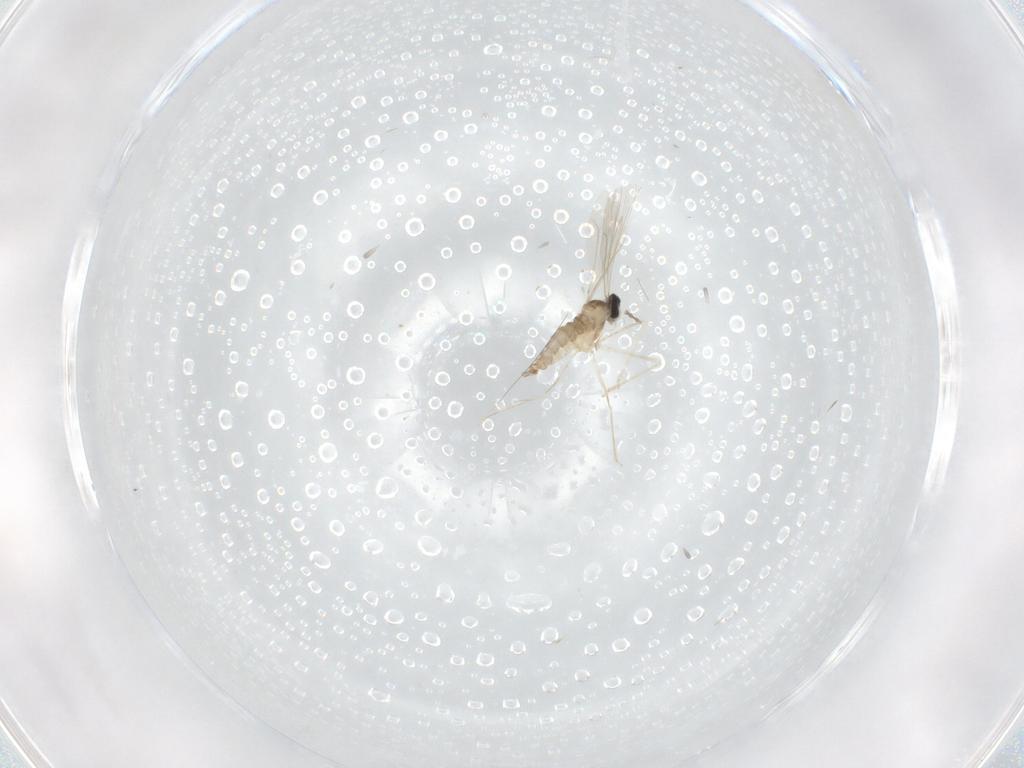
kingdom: Animalia
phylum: Arthropoda
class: Insecta
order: Diptera
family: Cecidomyiidae
